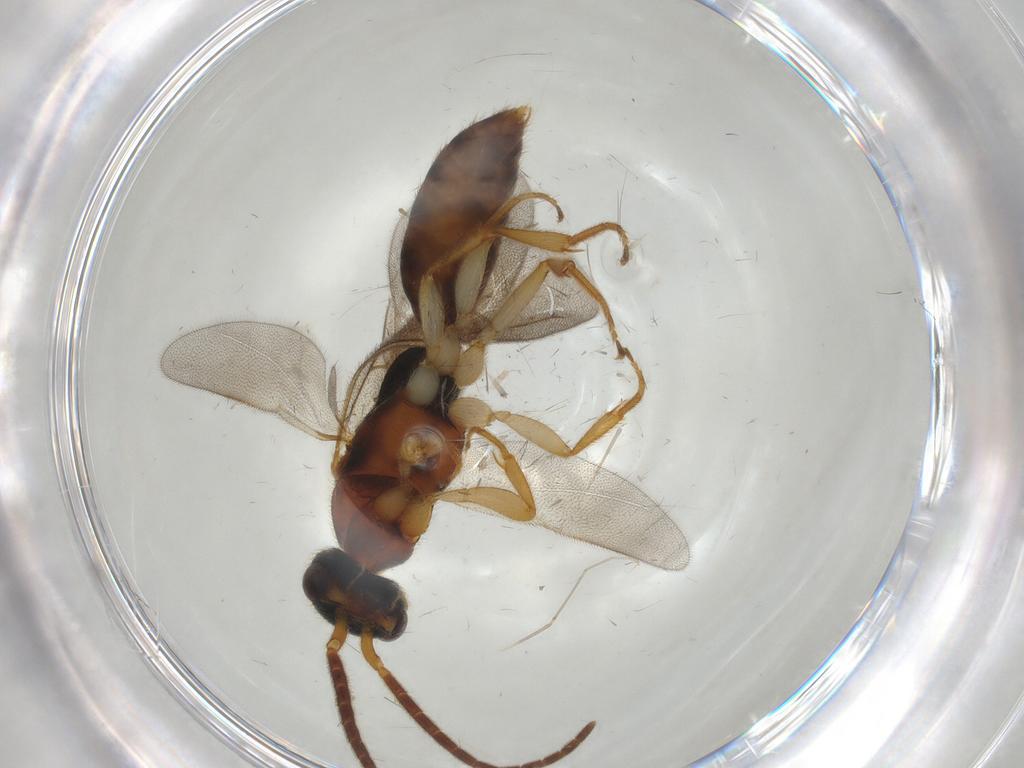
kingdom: Animalia
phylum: Arthropoda
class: Insecta
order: Hymenoptera
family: Bethylidae
